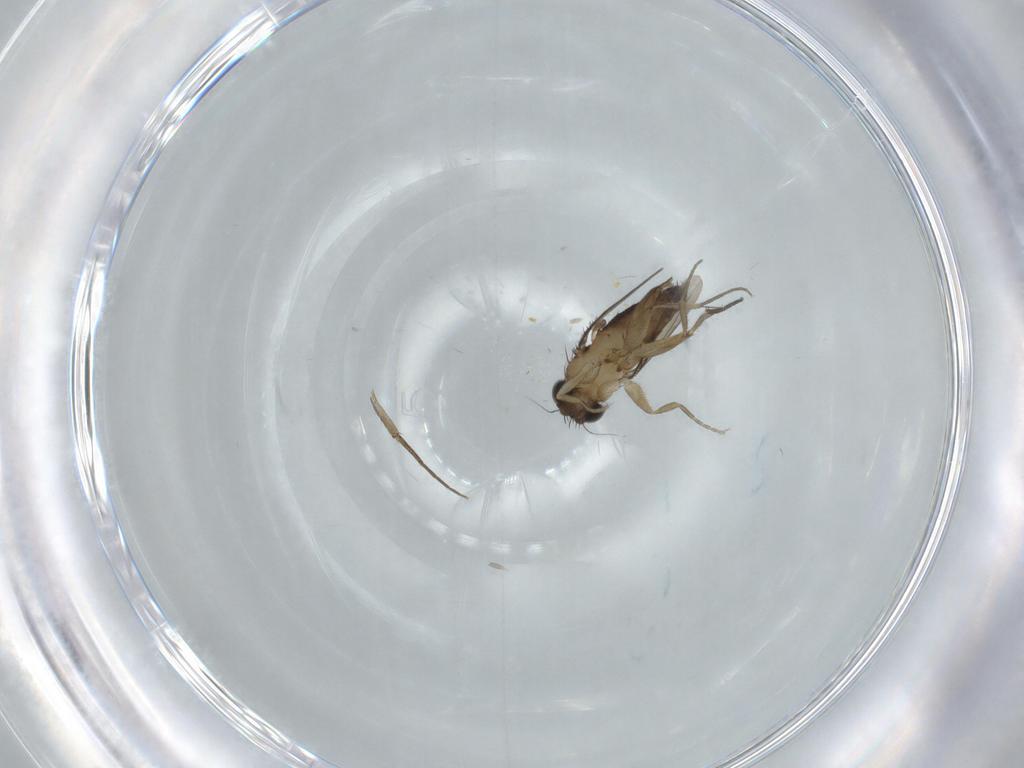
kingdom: Animalia
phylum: Arthropoda
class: Insecta
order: Diptera
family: Phoridae
